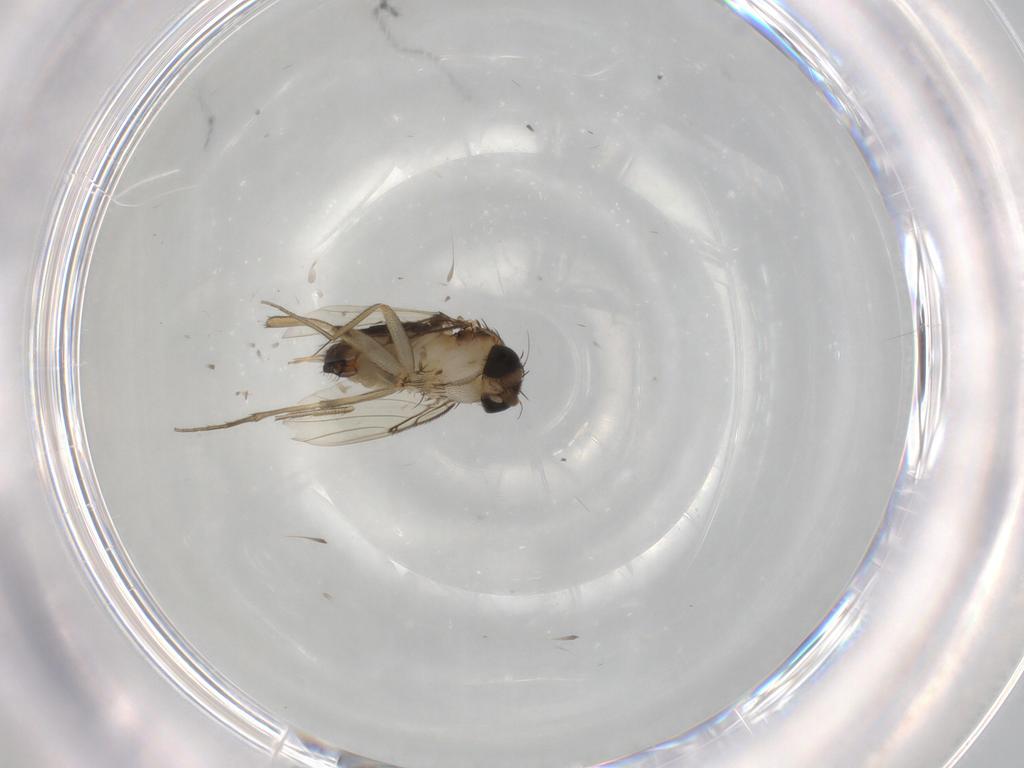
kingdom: Animalia
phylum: Arthropoda
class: Insecta
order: Diptera
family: Phoridae
